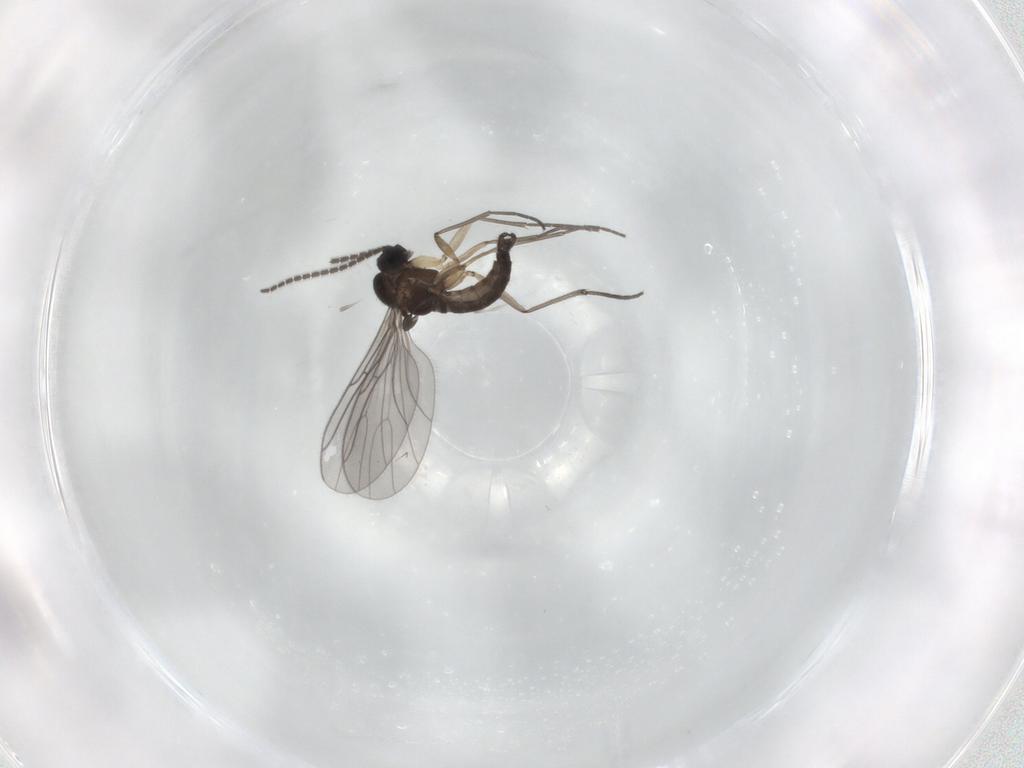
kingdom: Animalia
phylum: Arthropoda
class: Insecta
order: Diptera
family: Sciaridae
